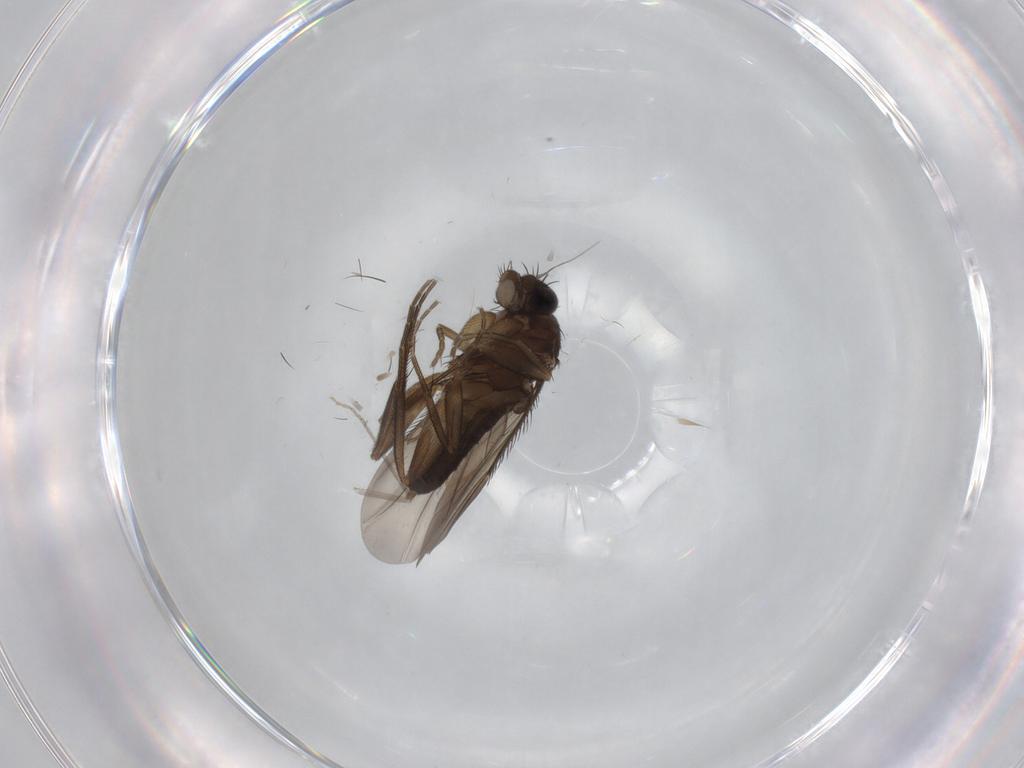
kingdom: Animalia
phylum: Arthropoda
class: Insecta
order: Diptera
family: Phoridae
